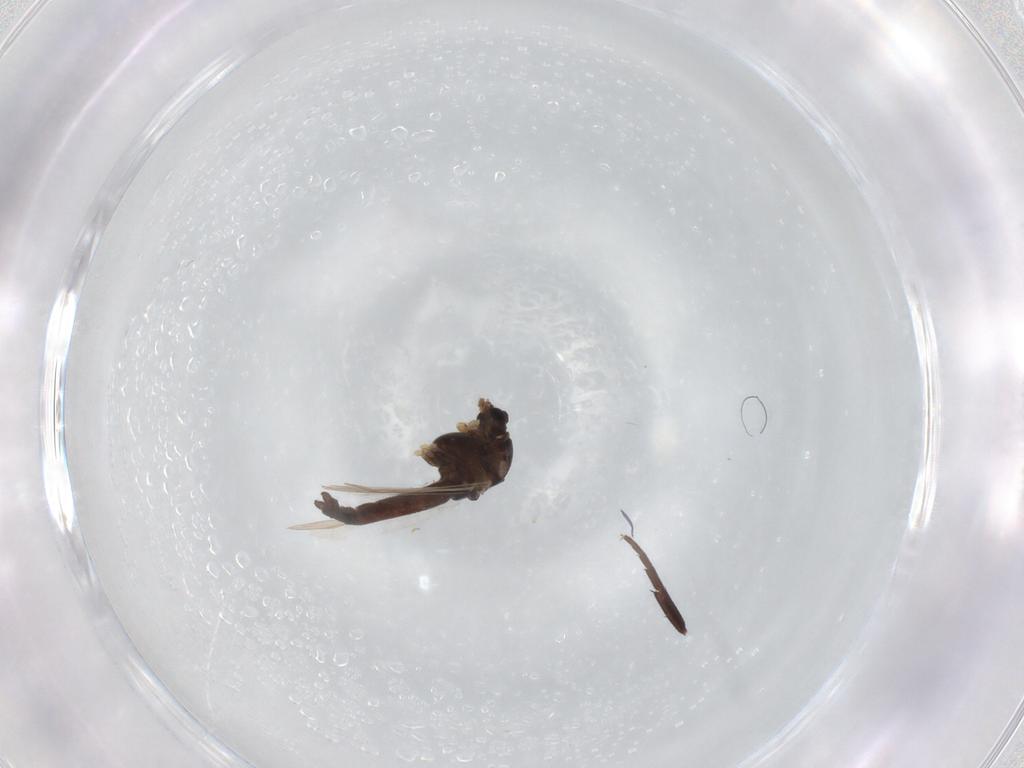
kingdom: Animalia
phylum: Arthropoda
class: Insecta
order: Diptera
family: Chironomidae
